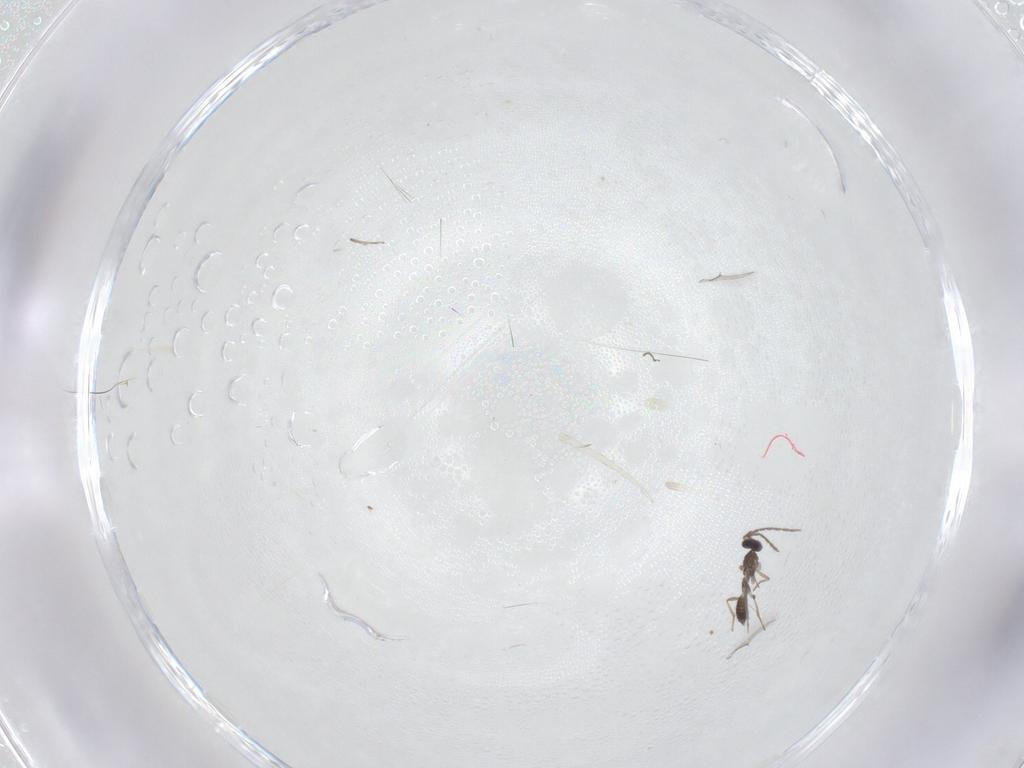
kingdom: Animalia
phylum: Arthropoda
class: Insecta
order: Hymenoptera
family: Eulophidae
